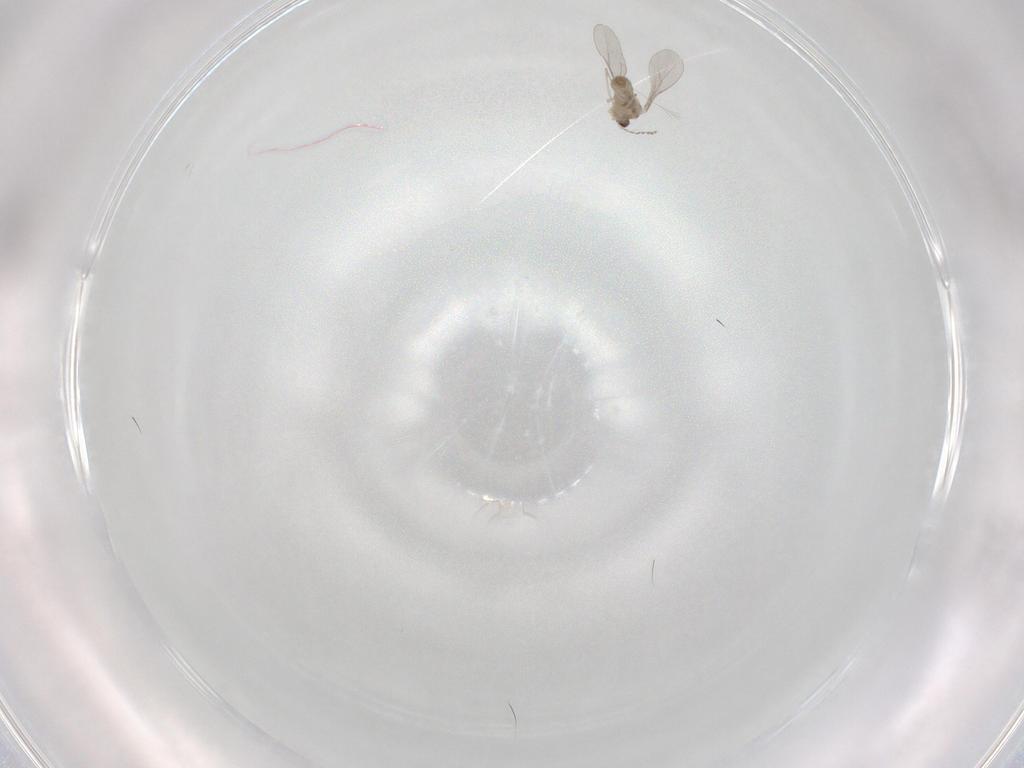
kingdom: Animalia
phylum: Arthropoda
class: Insecta
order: Diptera
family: Cecidomyiidae
